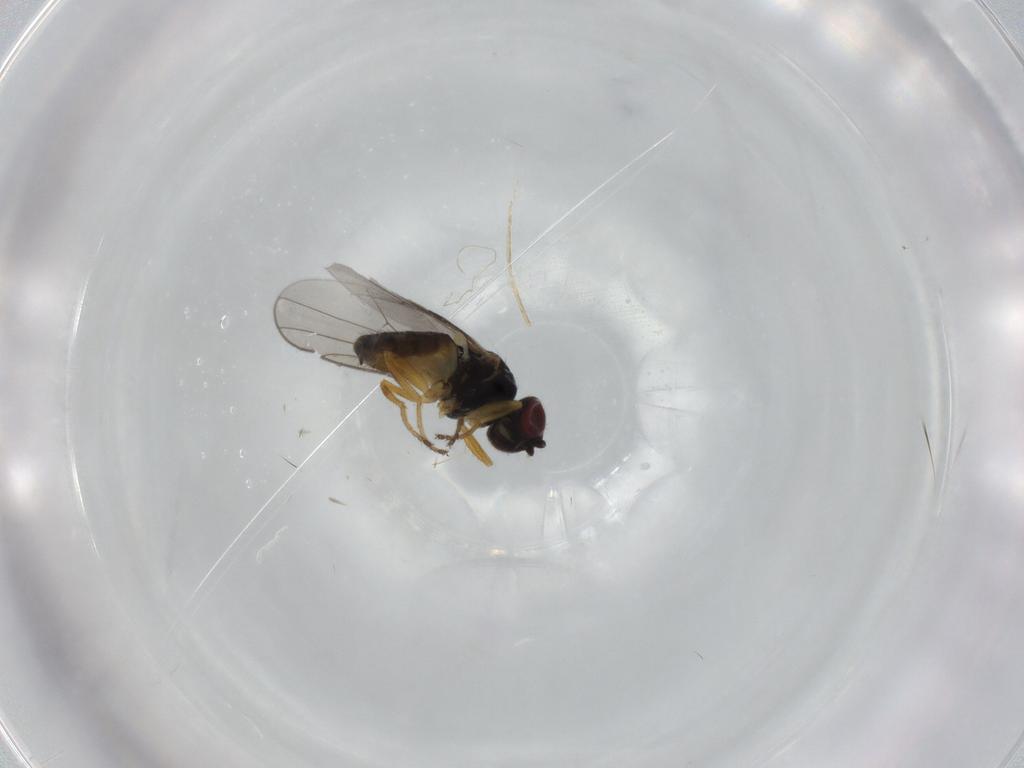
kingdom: Animalia
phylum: Arthropoda
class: Insecta
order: Diptera
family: Chloropidae
